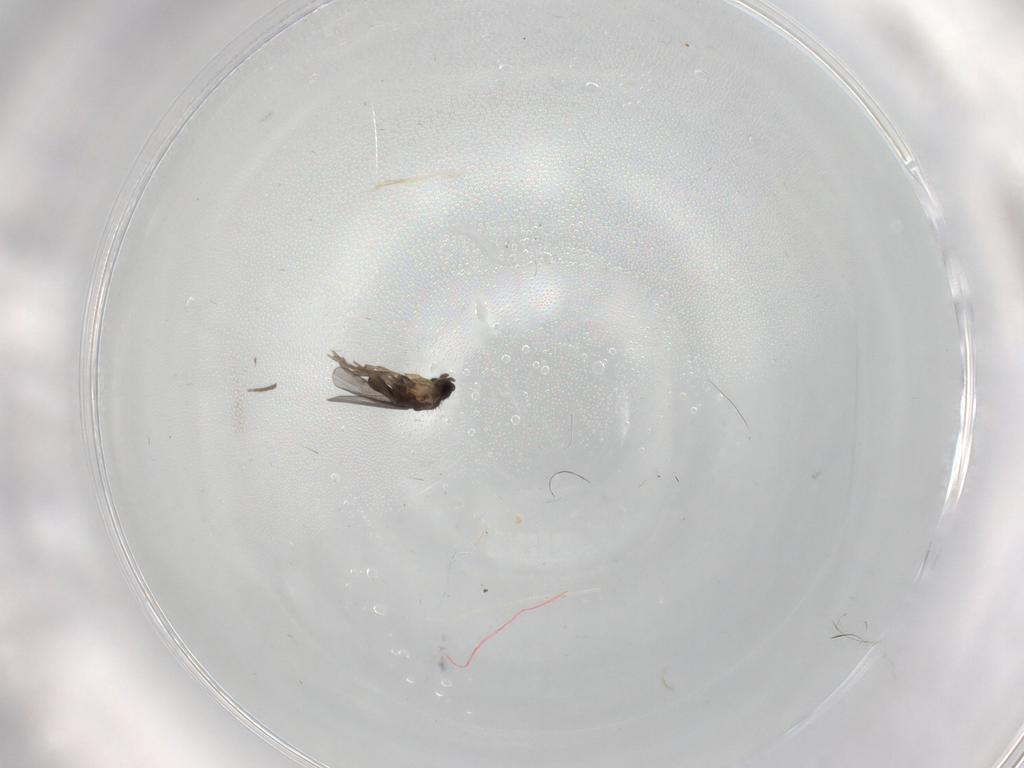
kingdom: Animalia
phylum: Arthropoda
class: Insecta
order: Diptera
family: Phoridae
